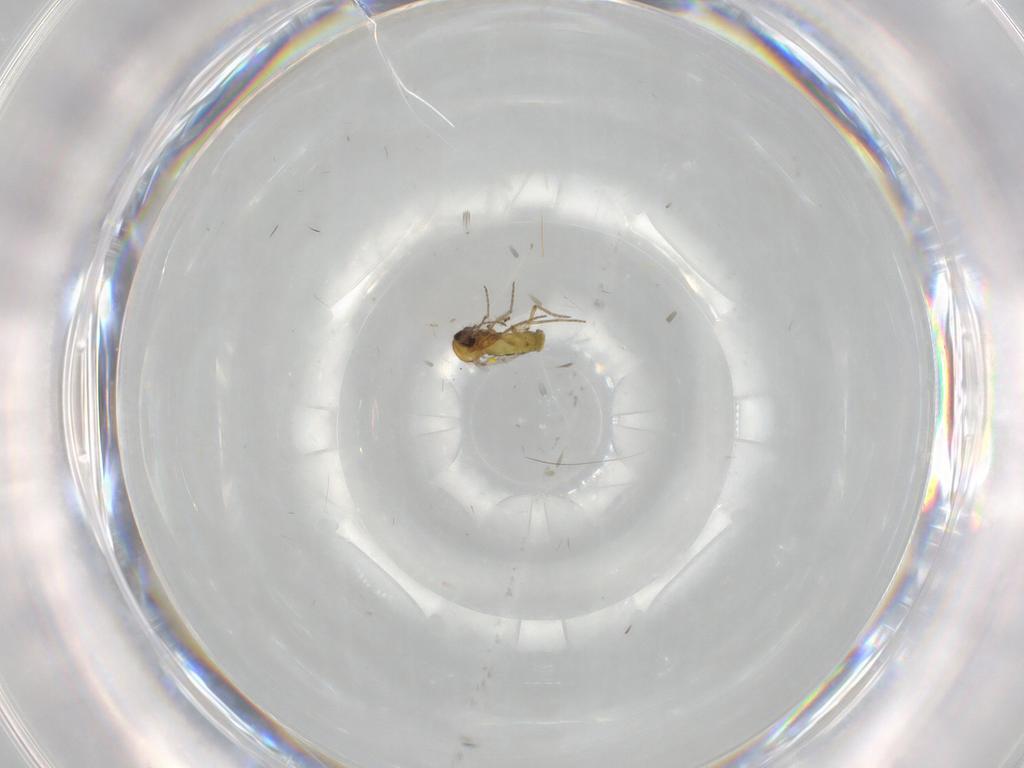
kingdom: Animalia
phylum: Arthropoda
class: Insecta
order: Diptera
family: Ceratopogonidae
